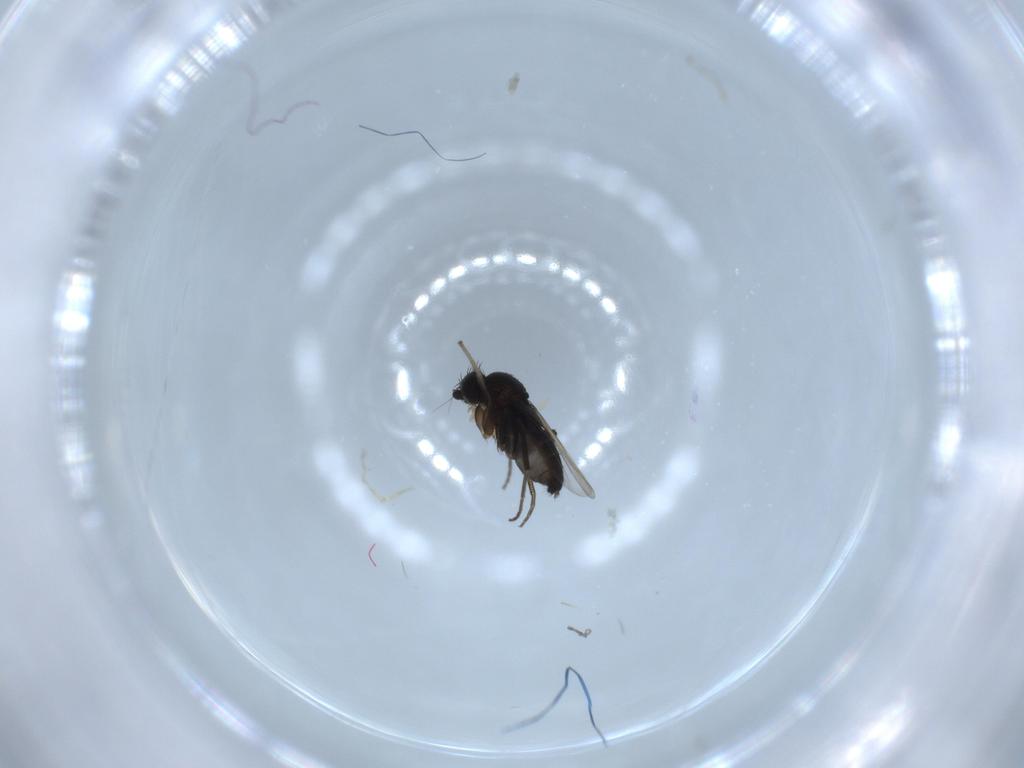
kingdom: Animalia
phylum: Arthropoda
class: Insecta
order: Diptera
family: Phoridae
